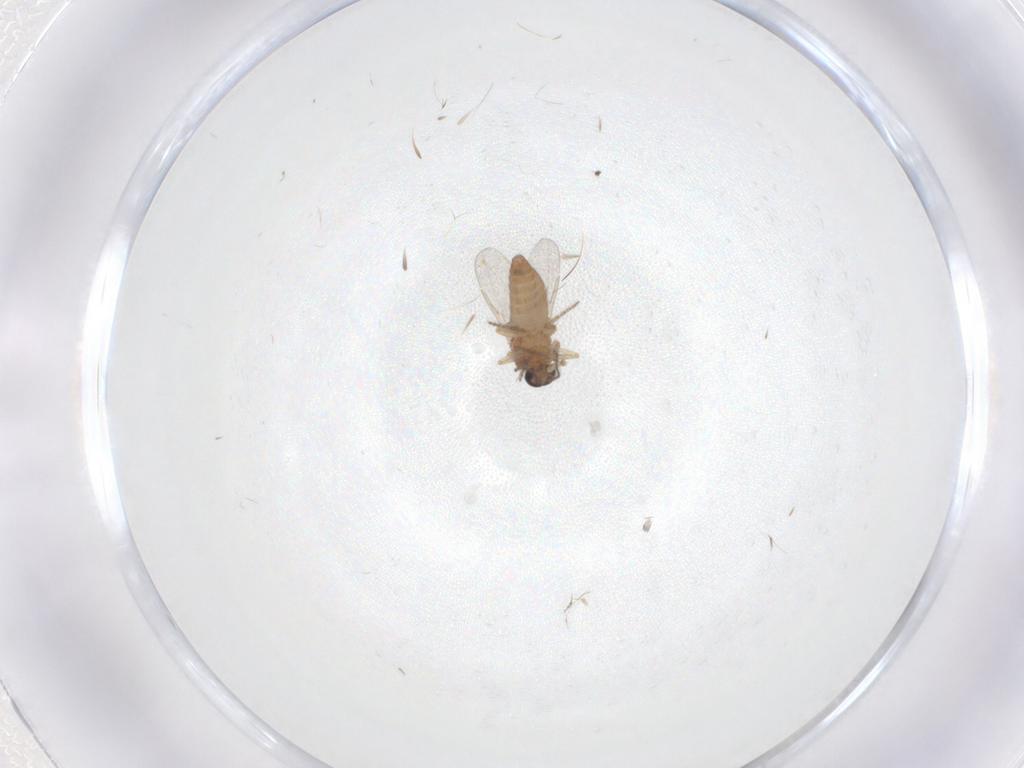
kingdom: Animalia
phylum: Arthropoda
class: Insecta
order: Diptera
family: Ceratopogonidae
